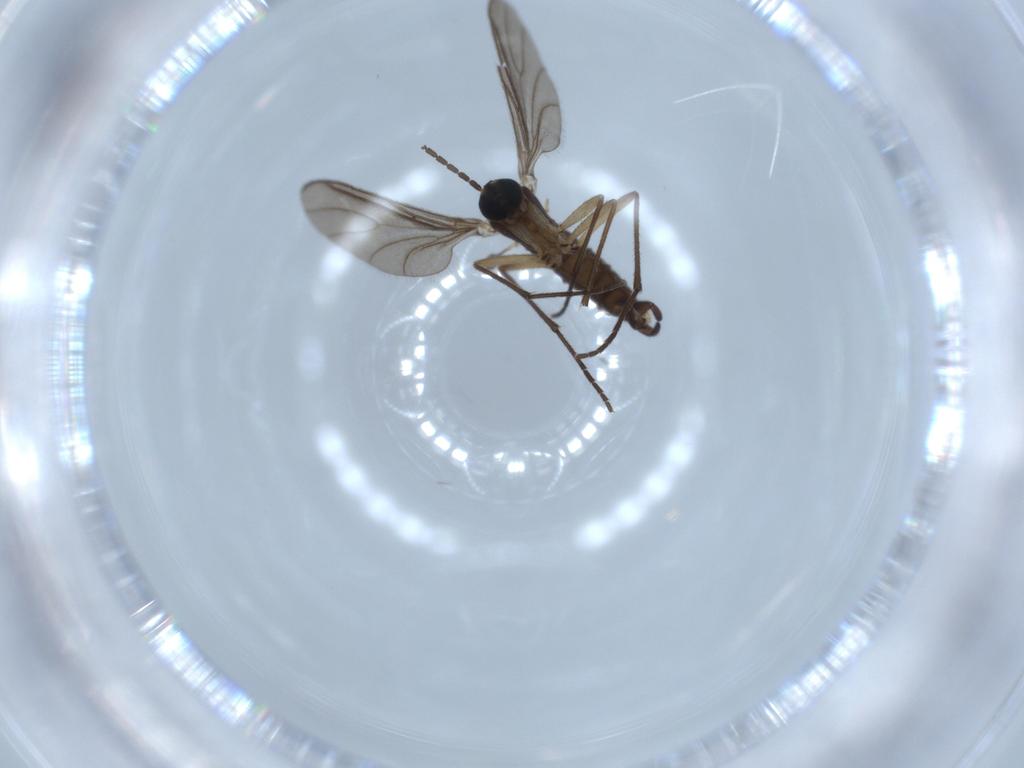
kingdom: Animalia
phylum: Arthropoda
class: Insecta
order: Diptera
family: Sciaridae
